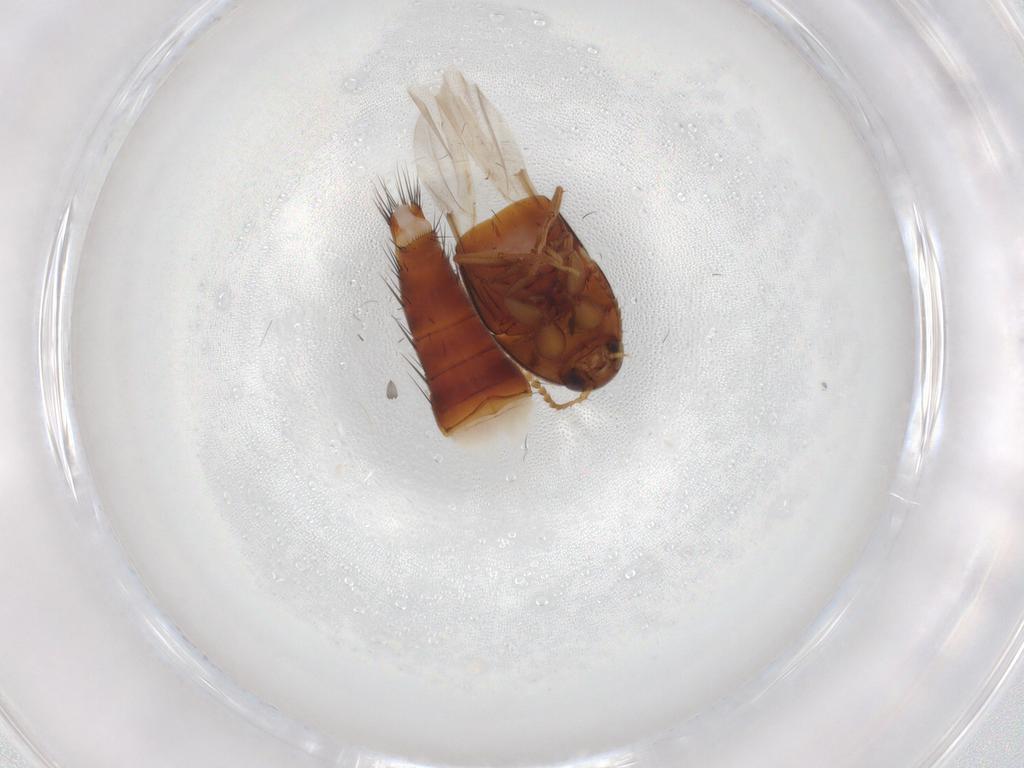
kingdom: Animalia
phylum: Arthropoda
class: Insecta
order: Coleoptera
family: Staphylinidae
